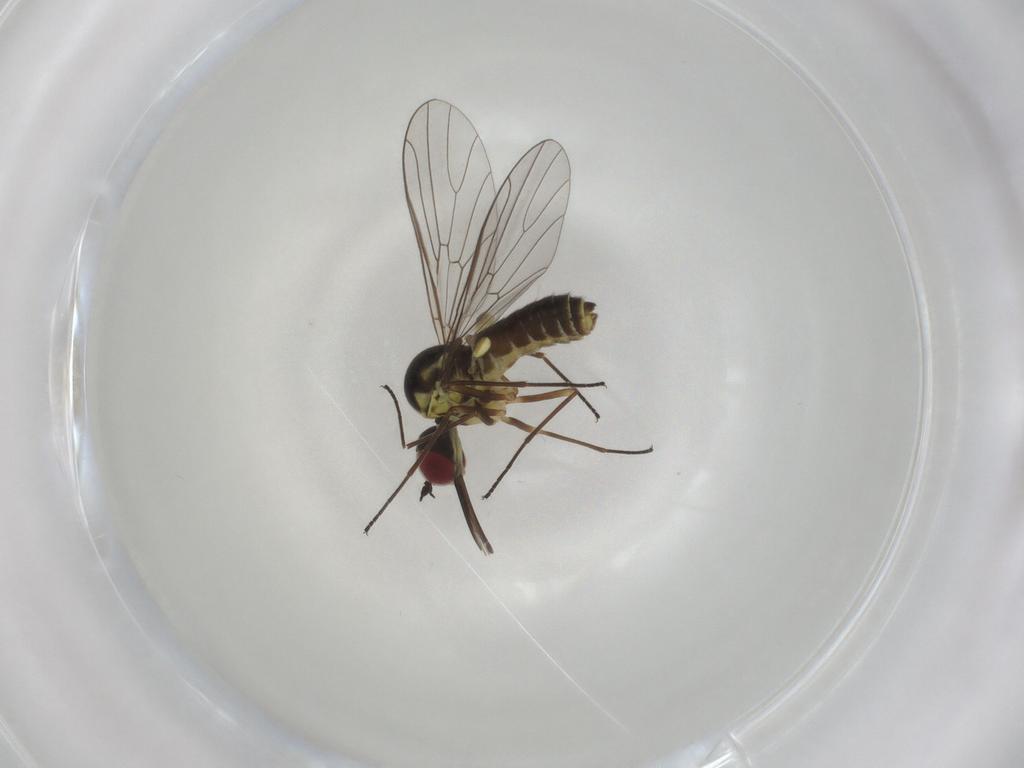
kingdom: Animalia
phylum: Arthropoda
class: Insecta
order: Diptera
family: Bombyliidae
